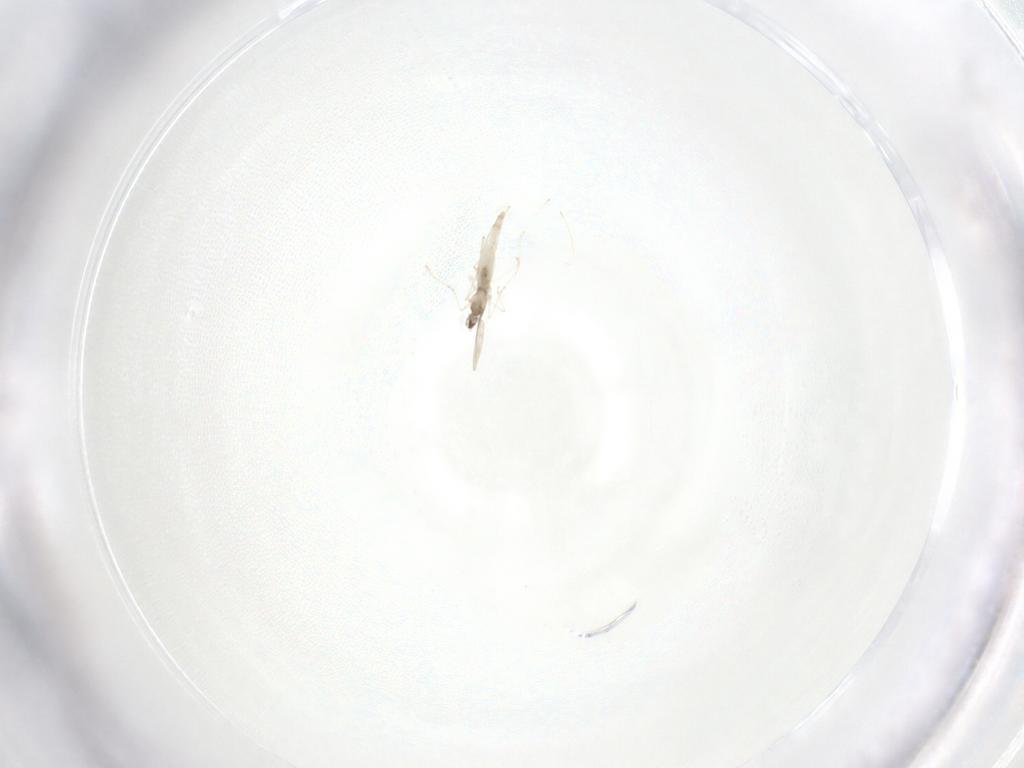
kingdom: Animalia
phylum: Arthropoda
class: Insecta
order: Diptera
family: Cecidomyiidae
